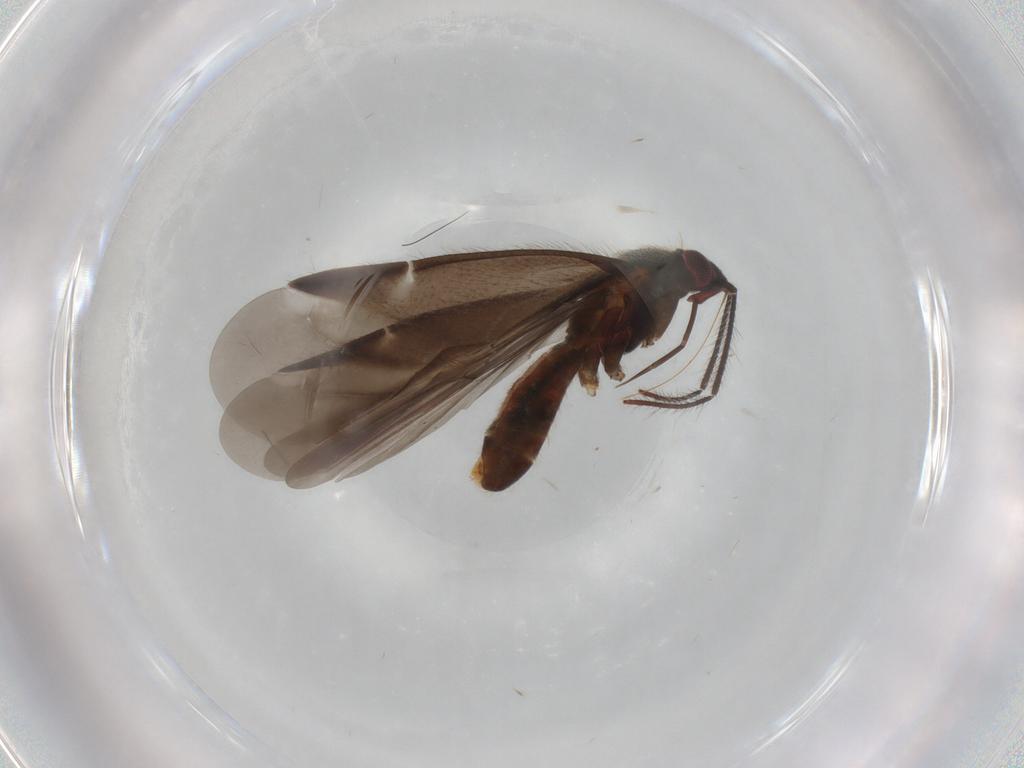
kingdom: Animalia
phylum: Arthropoda
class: Insecta
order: Hemiptera
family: Miridae
